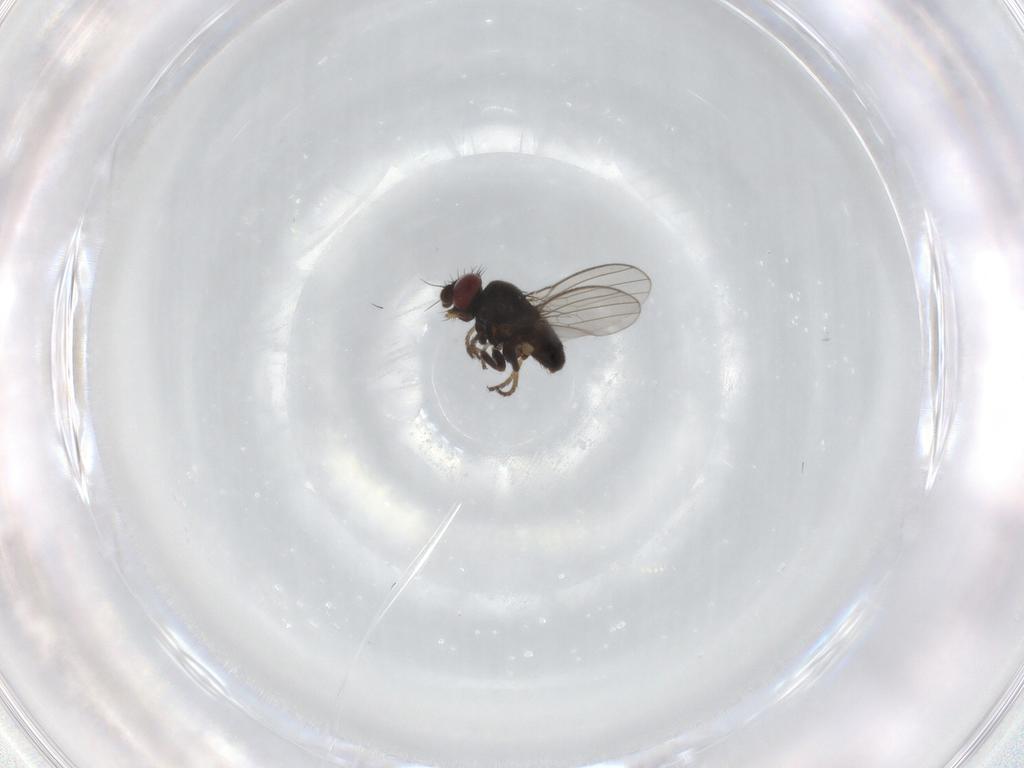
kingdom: Animalia
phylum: Arthropoda
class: Insecta
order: Diptera
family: Milichiidae
